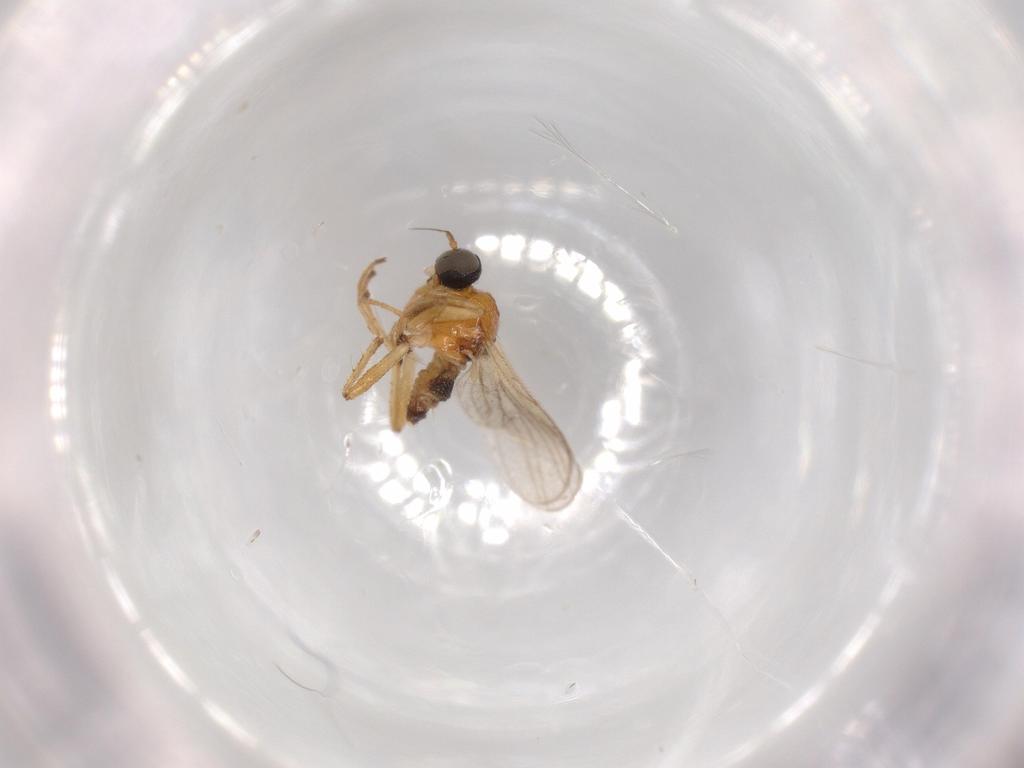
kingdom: Animalia
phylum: Arthropoda
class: Insecta
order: Diptera
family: Hybotidae
